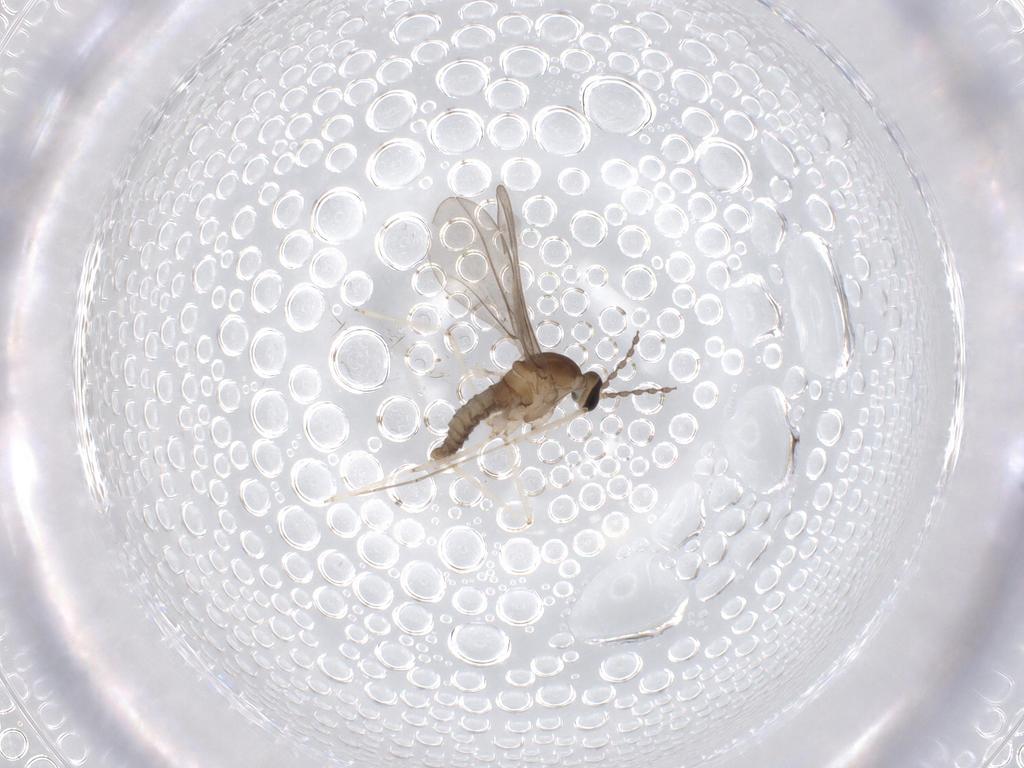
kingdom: Animalia
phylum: Arthropoda
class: Insecta
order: Diptera
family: Cecidomyiidae
